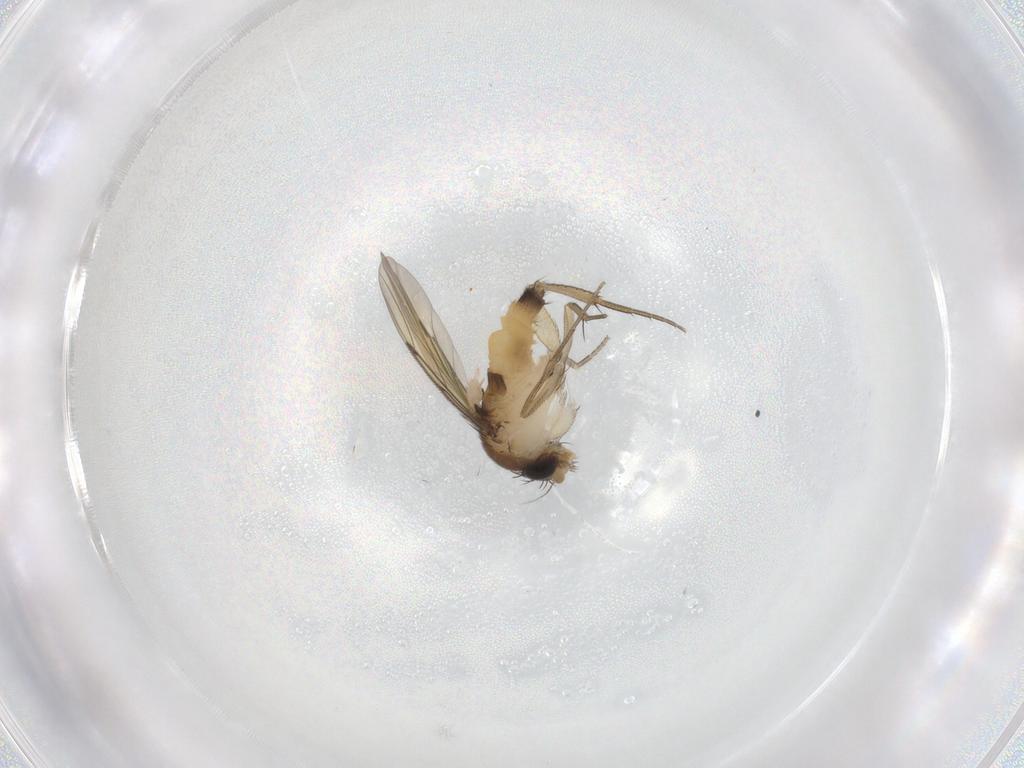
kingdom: Animalia
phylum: Arthropoda
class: Insecta
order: Diptera
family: Sciaridae
